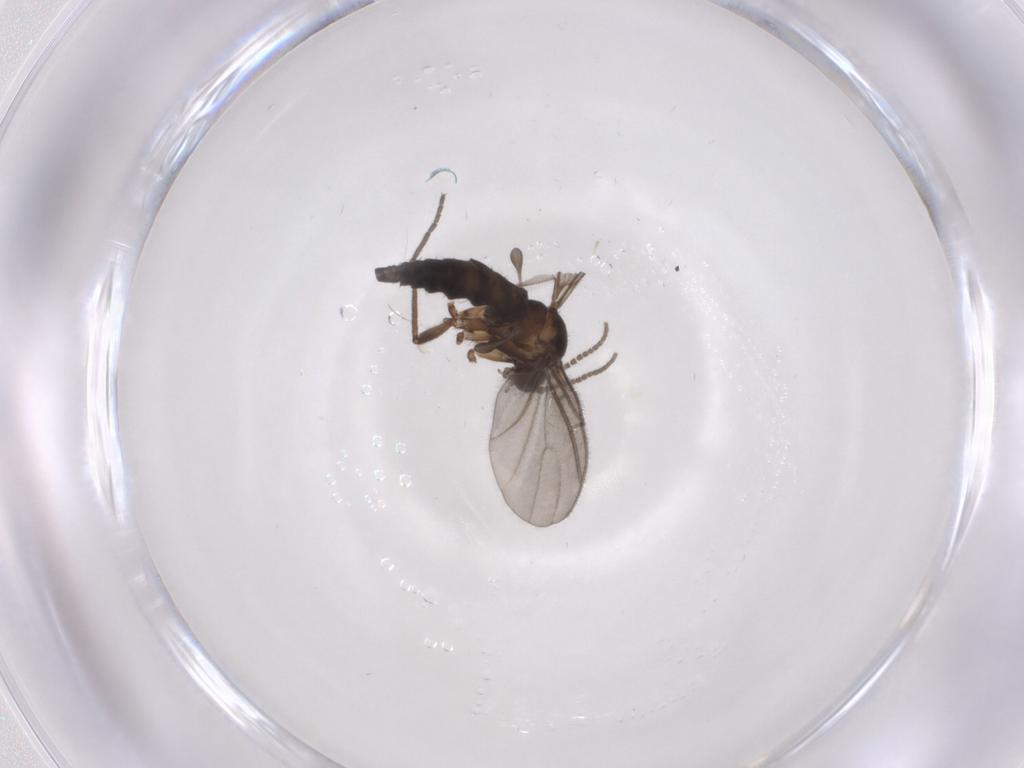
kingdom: Animalia
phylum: Arthropoda
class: Insecta
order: Diptera
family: Sciaridae
